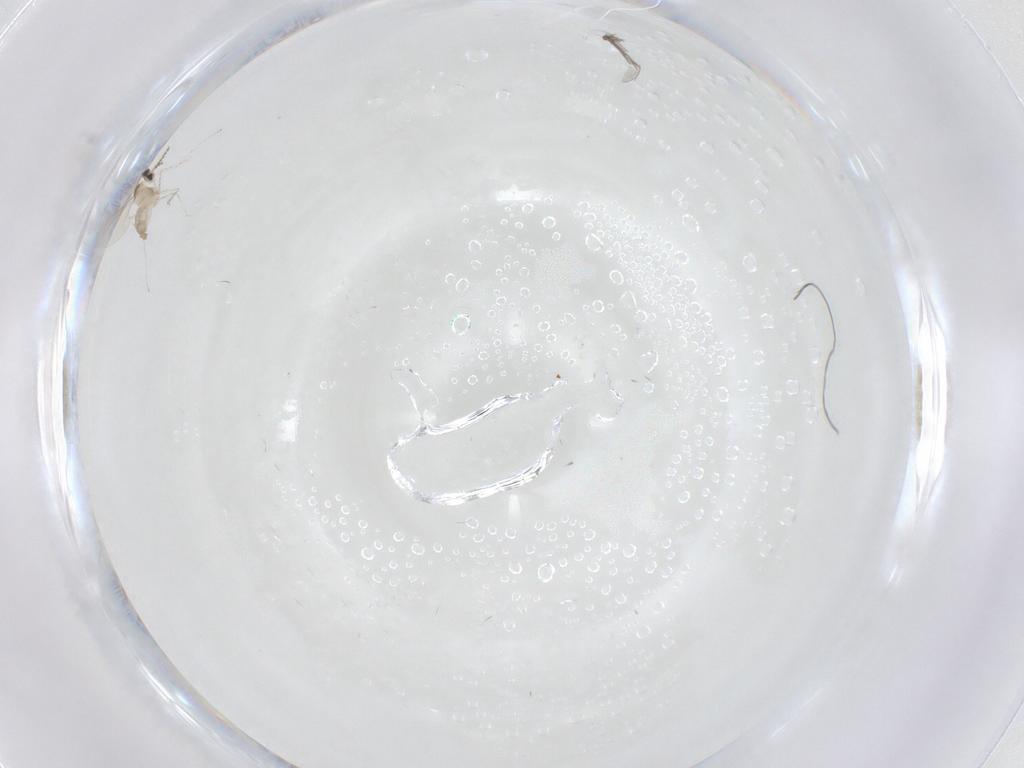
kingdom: Animalia
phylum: Arthropoda
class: Insecta
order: Diptera
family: Cecidomyiidae
